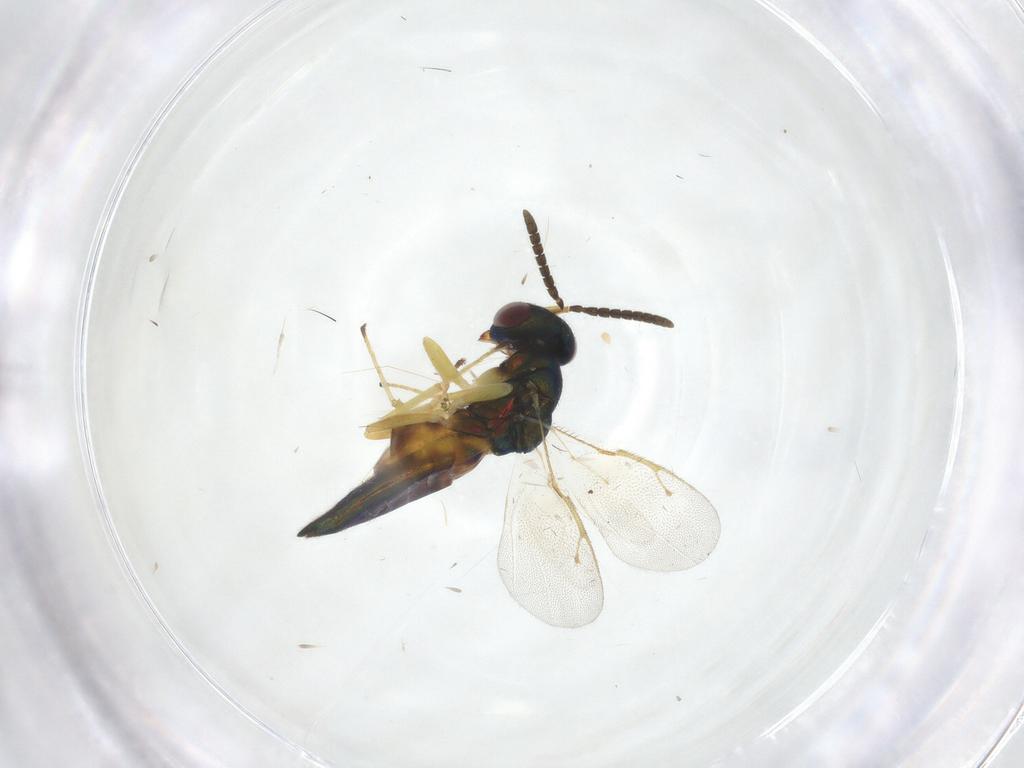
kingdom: Animalia
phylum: Arthropoda
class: Insecta
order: Hymenoptera
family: Pteromalidae
